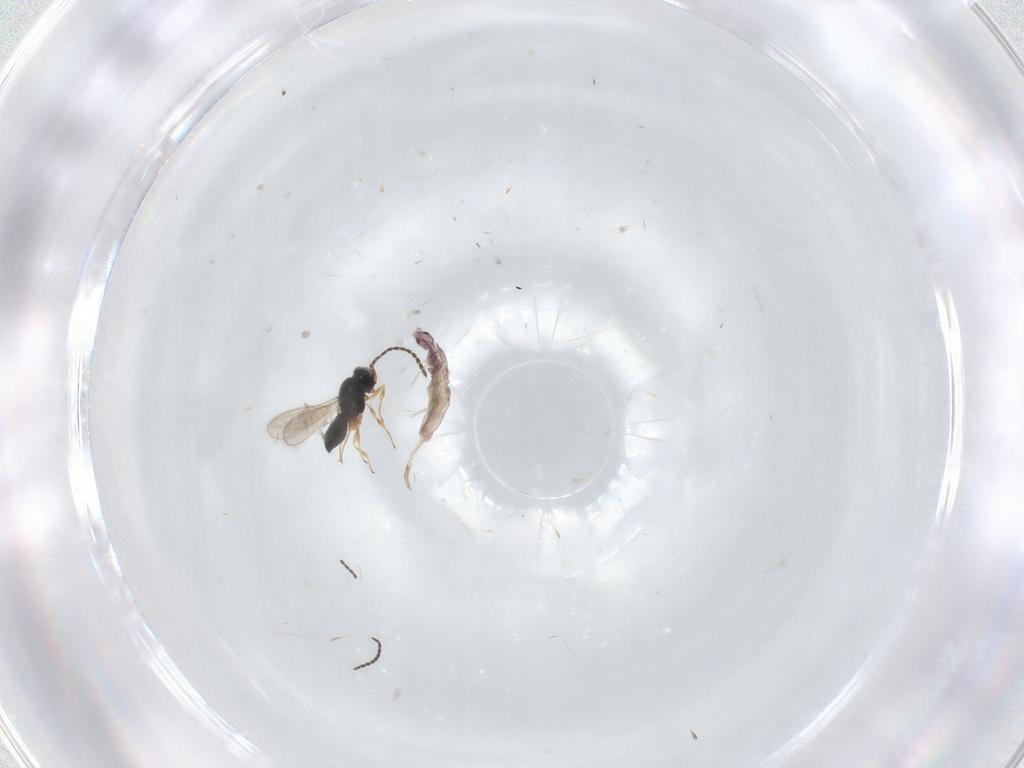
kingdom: Animalia
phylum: Arthropoda
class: Insecta
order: Hymenoptera
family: Scelionidae
